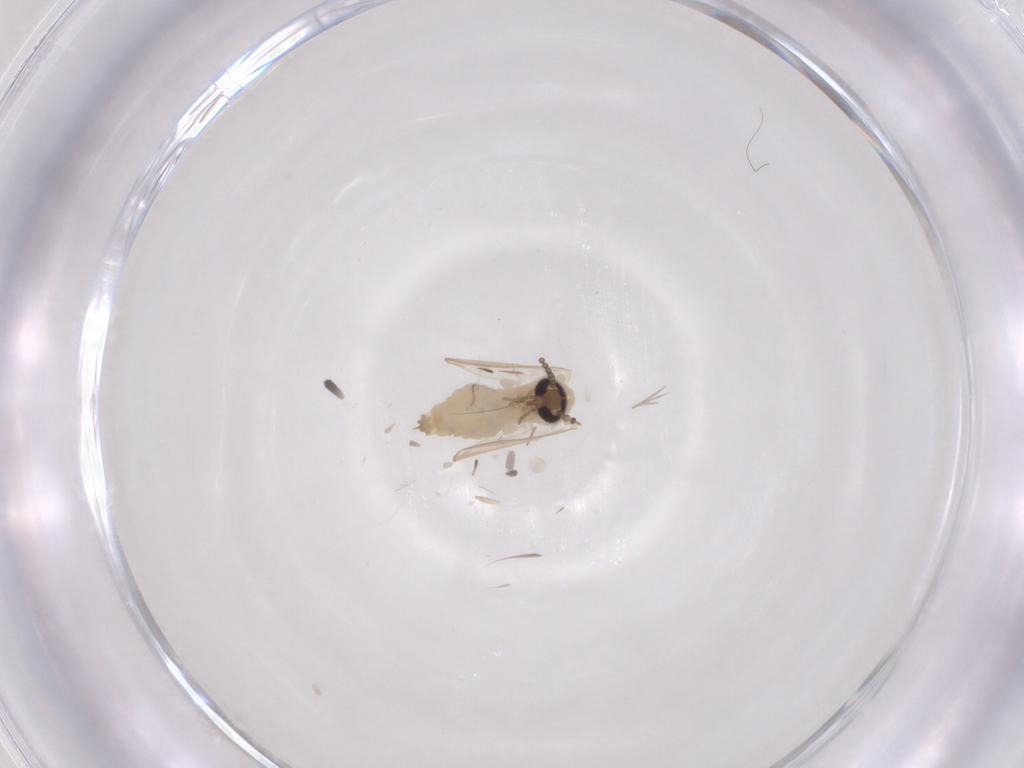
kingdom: Animalia
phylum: Arthropoda
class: Insecta
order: Diptera
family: Psychodidae
